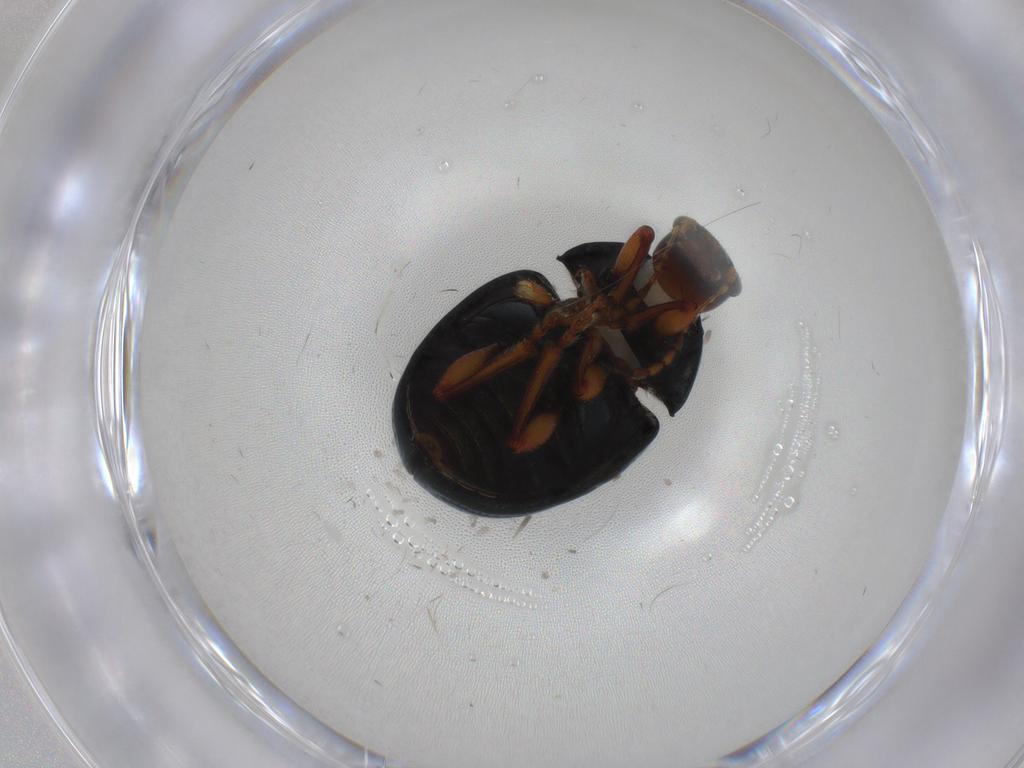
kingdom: Animalia
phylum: Arthropoda
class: Insecta
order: Coleoptera
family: Chrysomelidae
